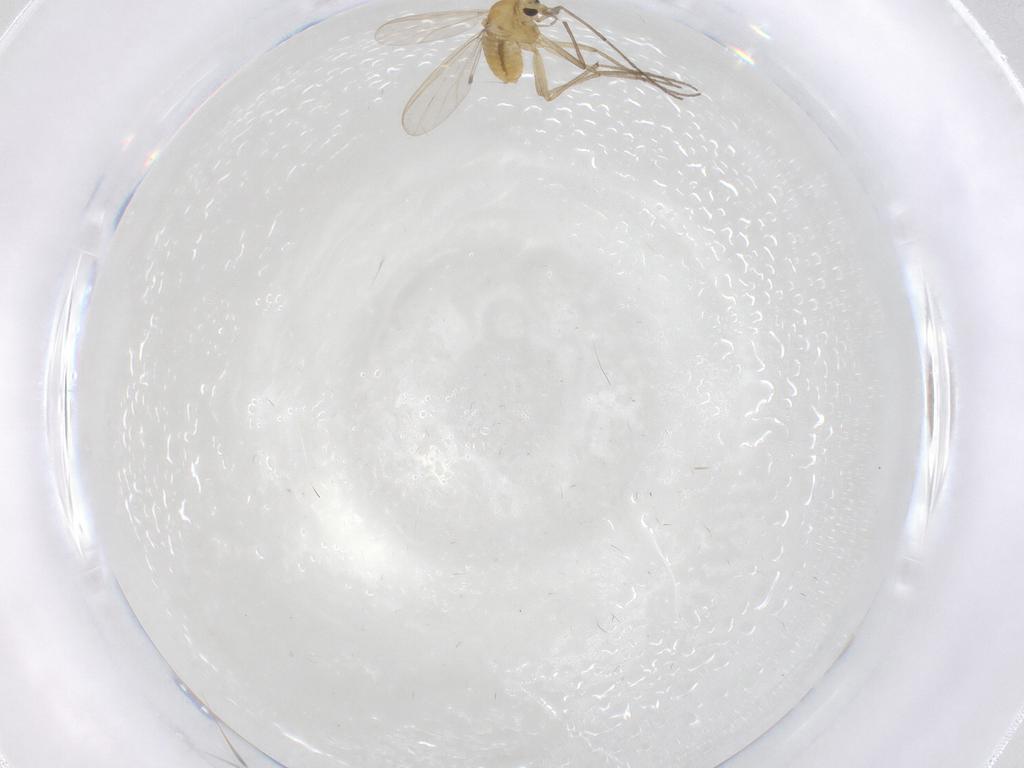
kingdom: Animalia
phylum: Arthropoda
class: Insecta
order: Diptera
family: Chironomidae
